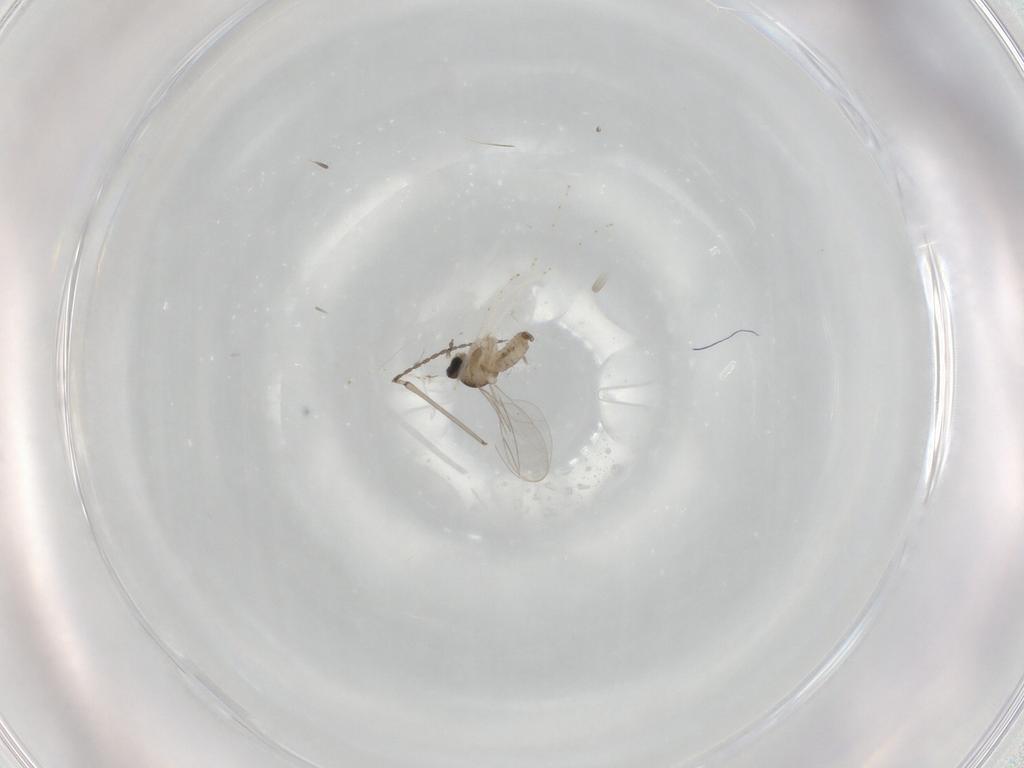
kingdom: Animalia
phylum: Arthropoda
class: Insecta
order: Diptera
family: Cecidomyiidae
